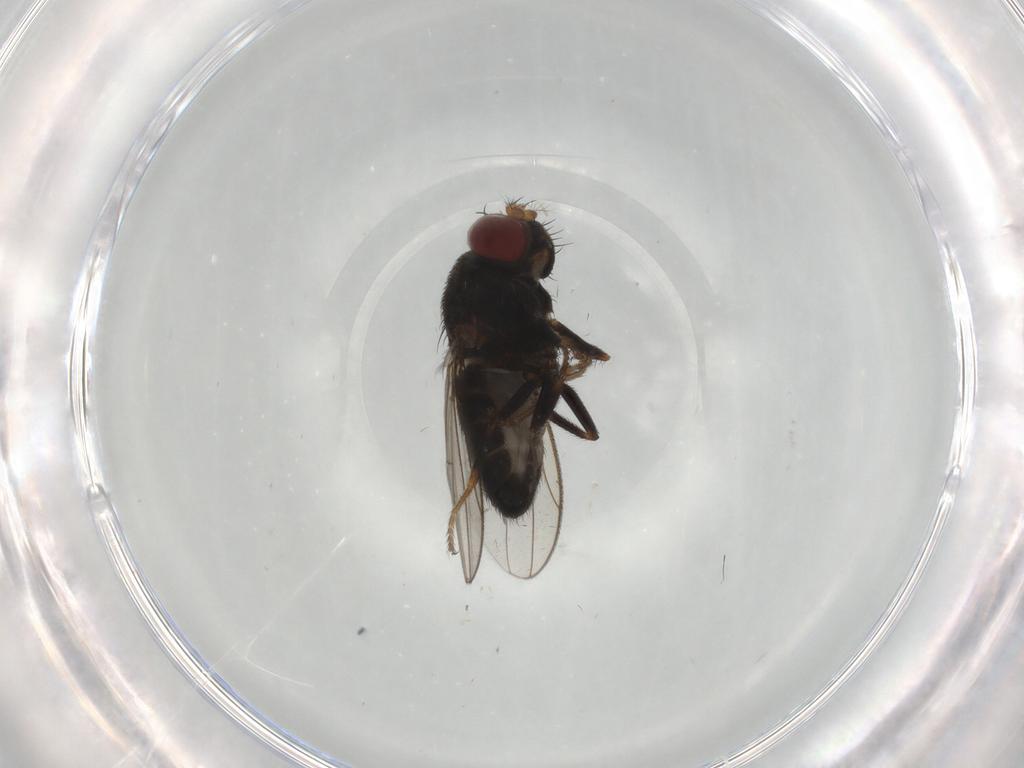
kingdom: Animalia
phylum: Arthropoda
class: Insecta
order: Diptera
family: Ephydridae
